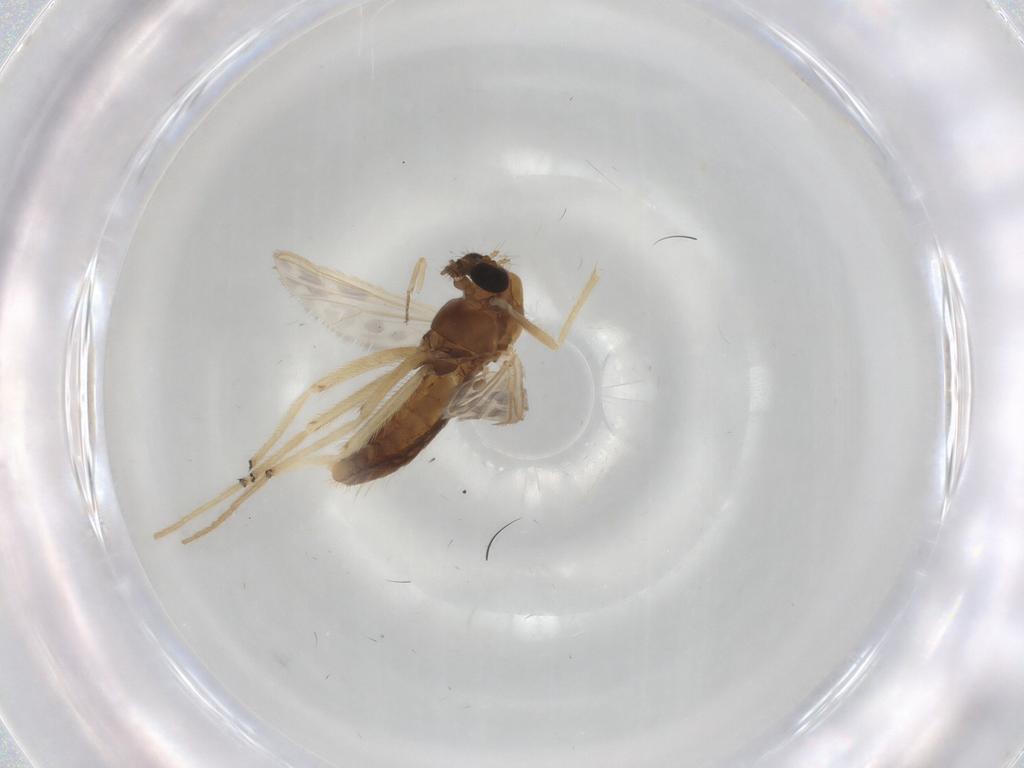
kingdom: Animalia
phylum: Arthropoda
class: Insecta
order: Diptera
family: Chironomidae
